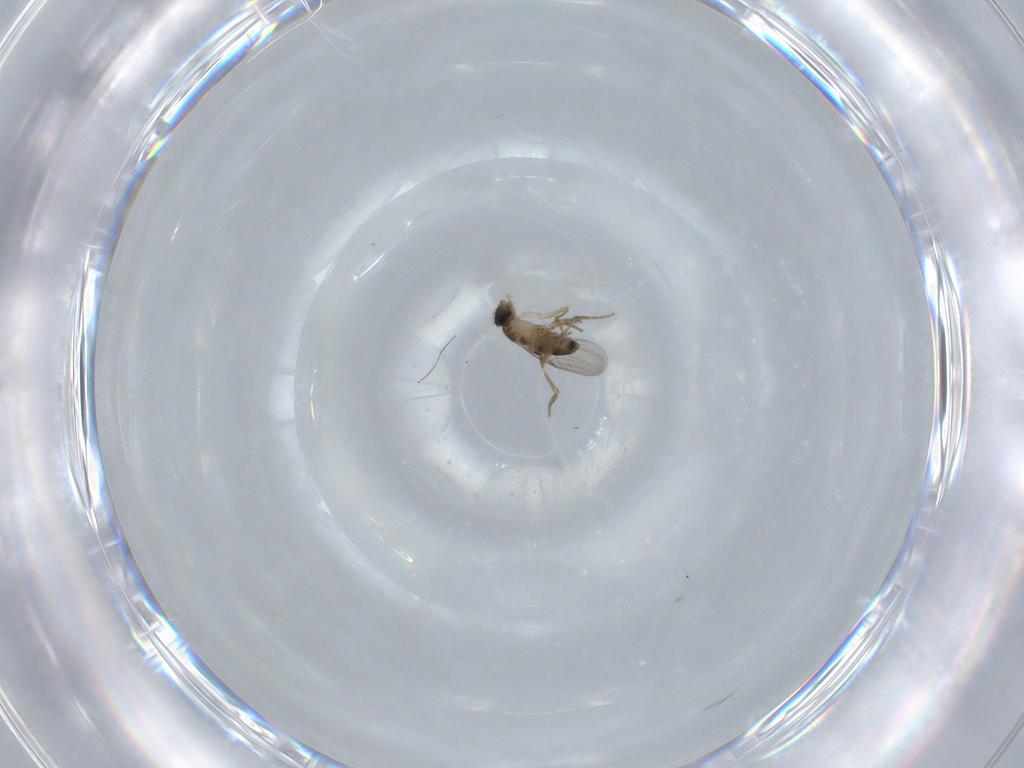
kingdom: Animalia
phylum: Arthropoda
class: Insecta
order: Diptera
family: Phoridae
